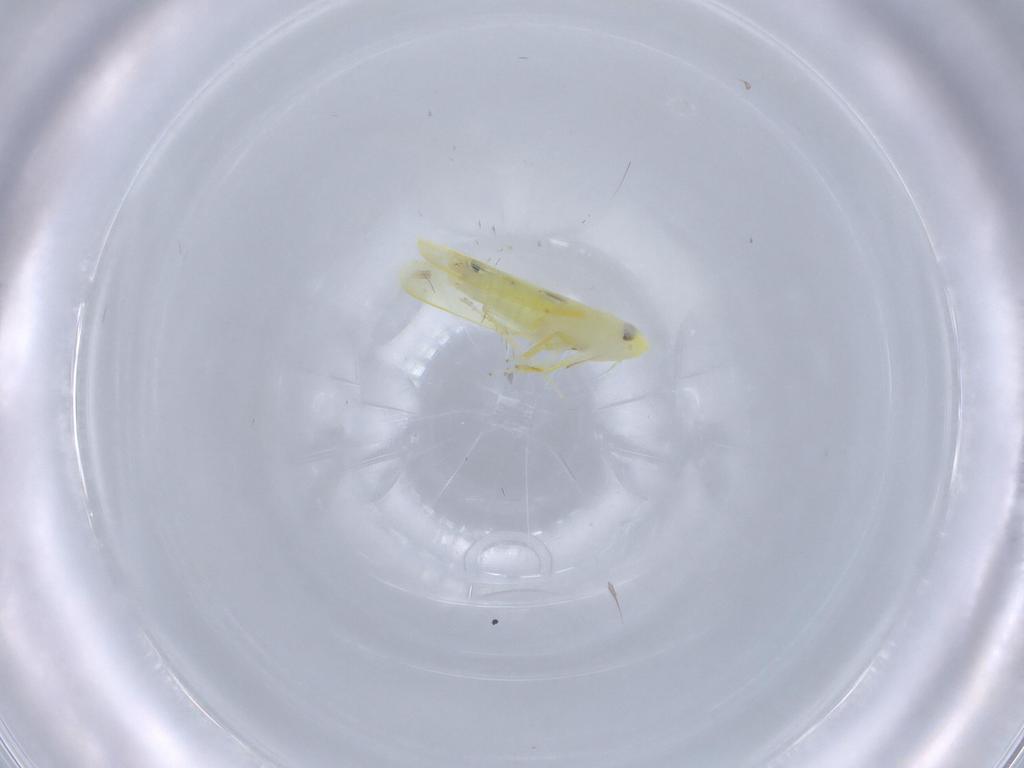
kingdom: Animalia
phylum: Arthropoda
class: Insecta
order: Hemiptera
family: Cicadellidae
